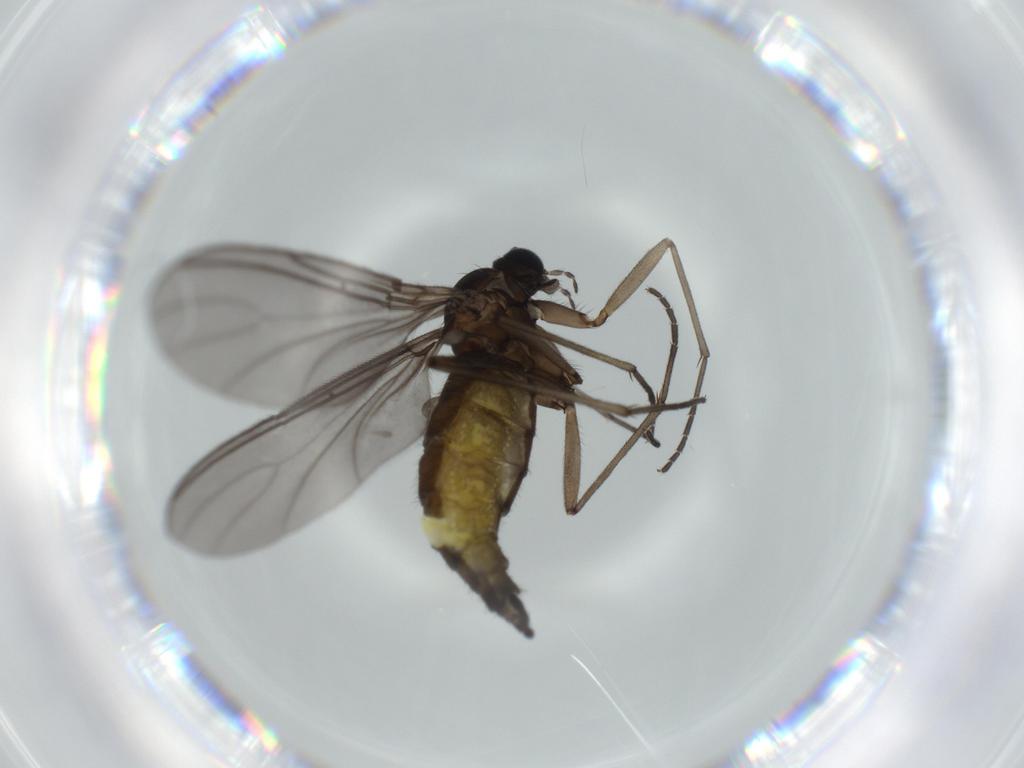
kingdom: Animalia
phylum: Arthropoda
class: Insecta
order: Diptera
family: Sciaridae
